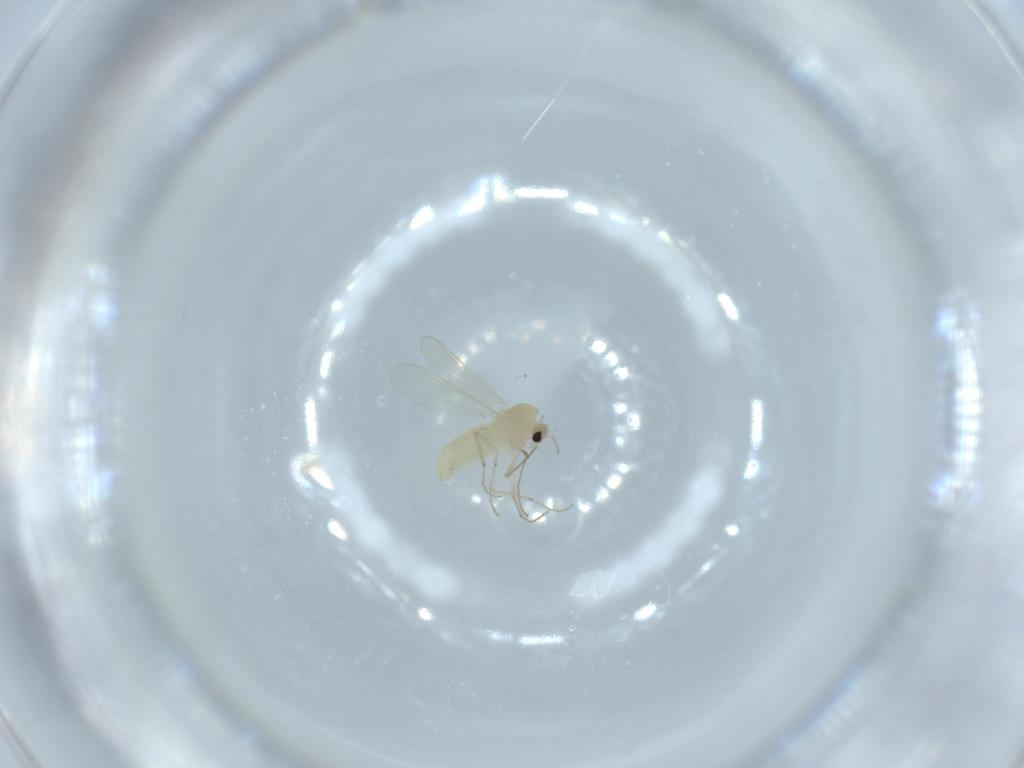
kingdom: Animalia
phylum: Arthropoda
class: Insecta
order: Diptera
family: Chironomidae
